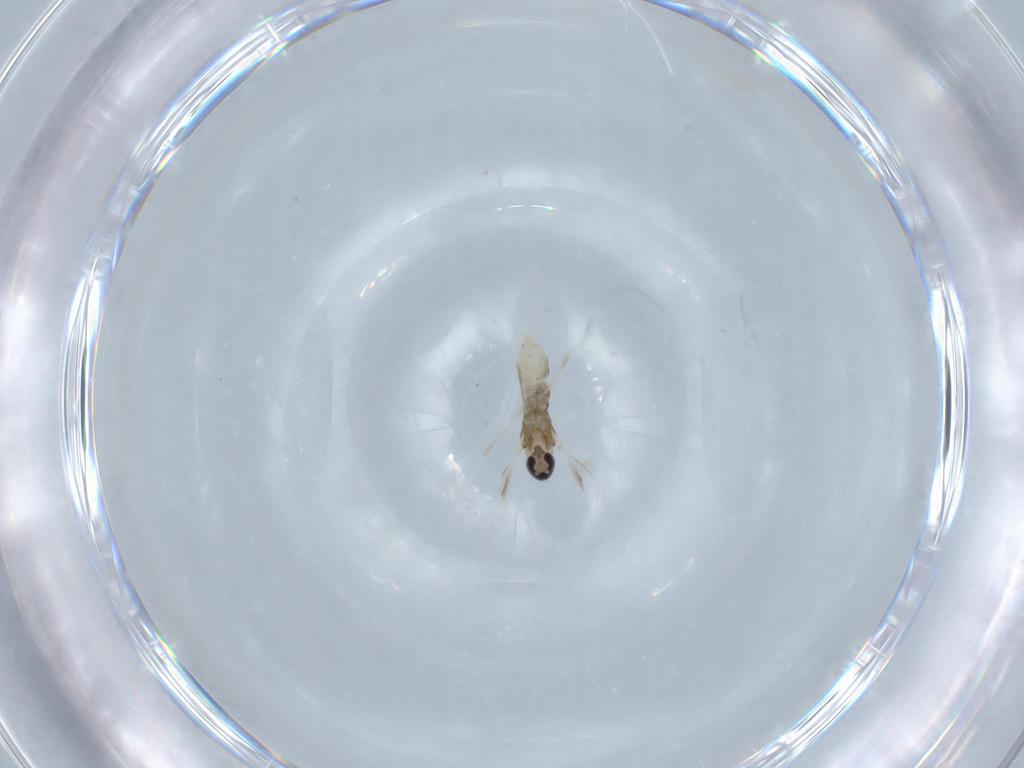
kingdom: Animalia
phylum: Arthropoda
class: Insecta
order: Diptera
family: Cecidomyiidae
